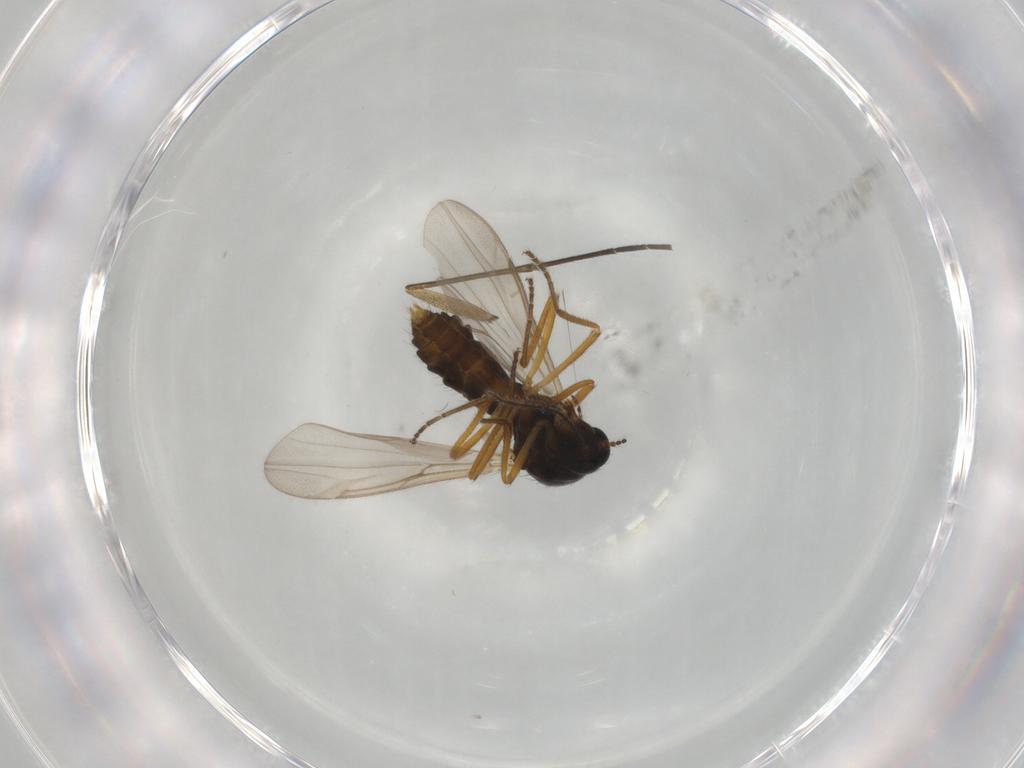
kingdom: Animalia
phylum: Arthropoda
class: Insecta
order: Diptera
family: Ceratopogonidae
